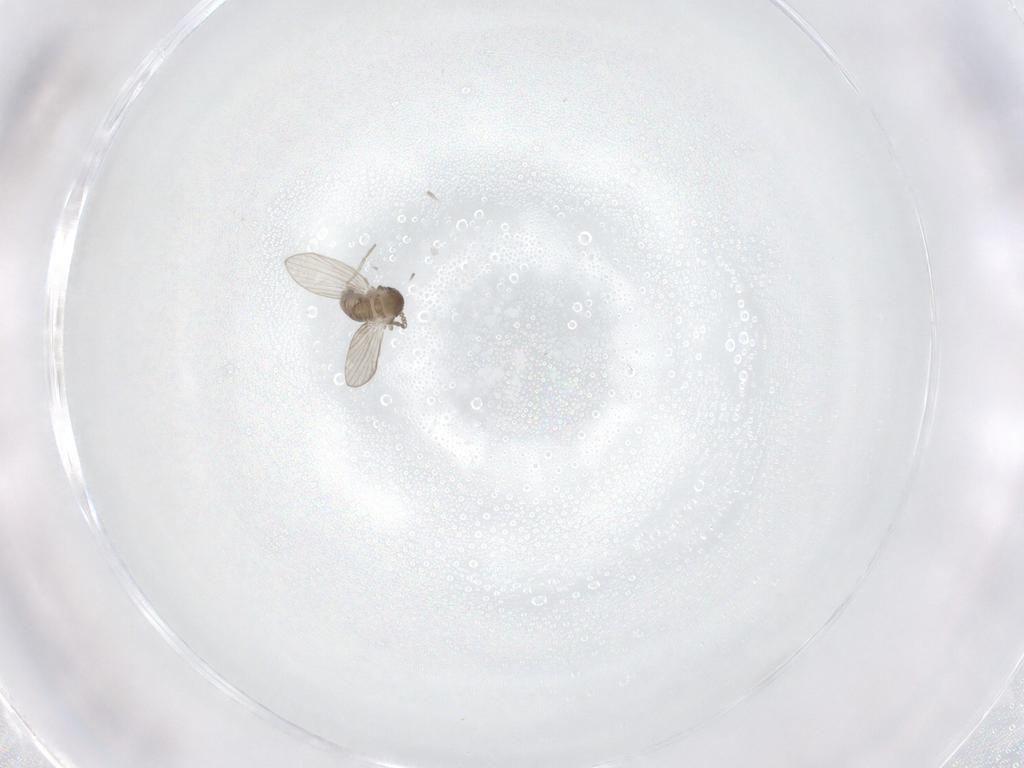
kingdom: Animalia
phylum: Arthropoda
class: Insecta
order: Diptera
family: Psychodidae
